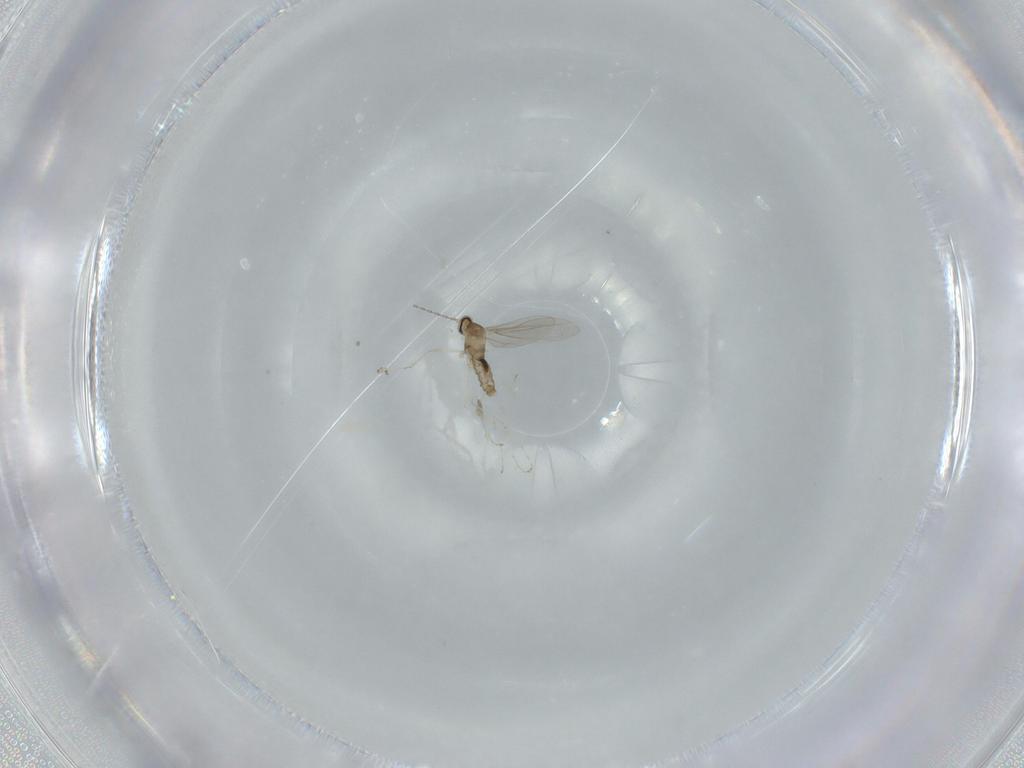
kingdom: Animalia
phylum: Arthropoda
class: Insecta
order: Diptera
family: Cecidomyiidae
